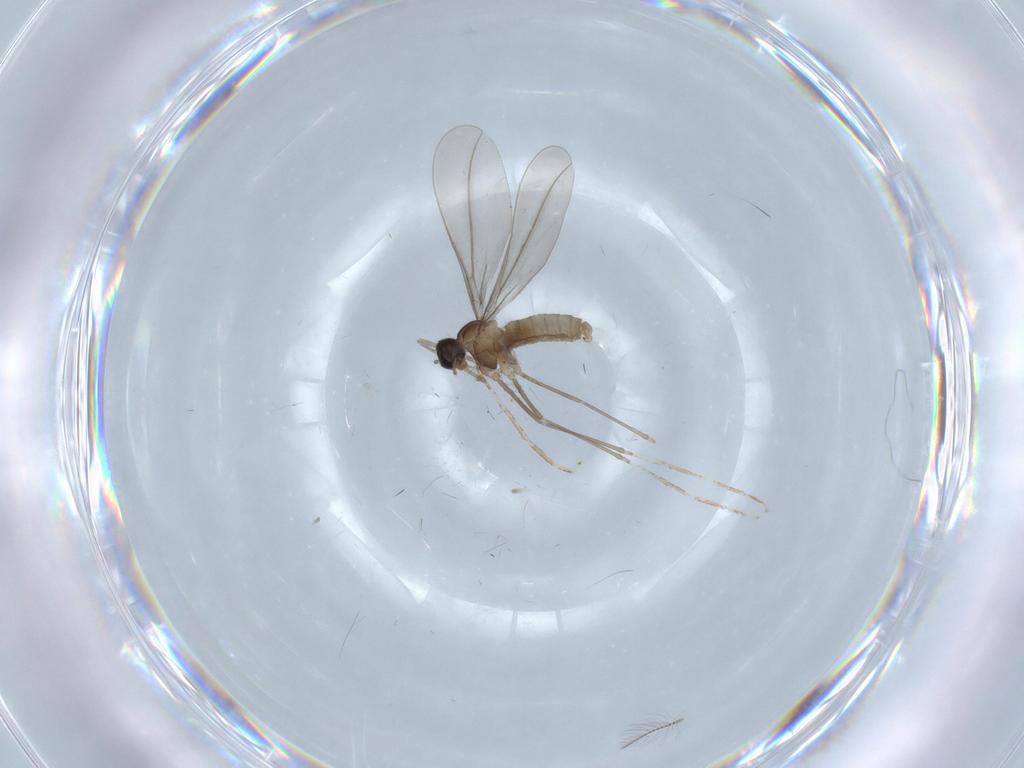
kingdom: Animalia
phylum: Arthropoda
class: Insecta
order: Diptera
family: Cecidomyiidae
